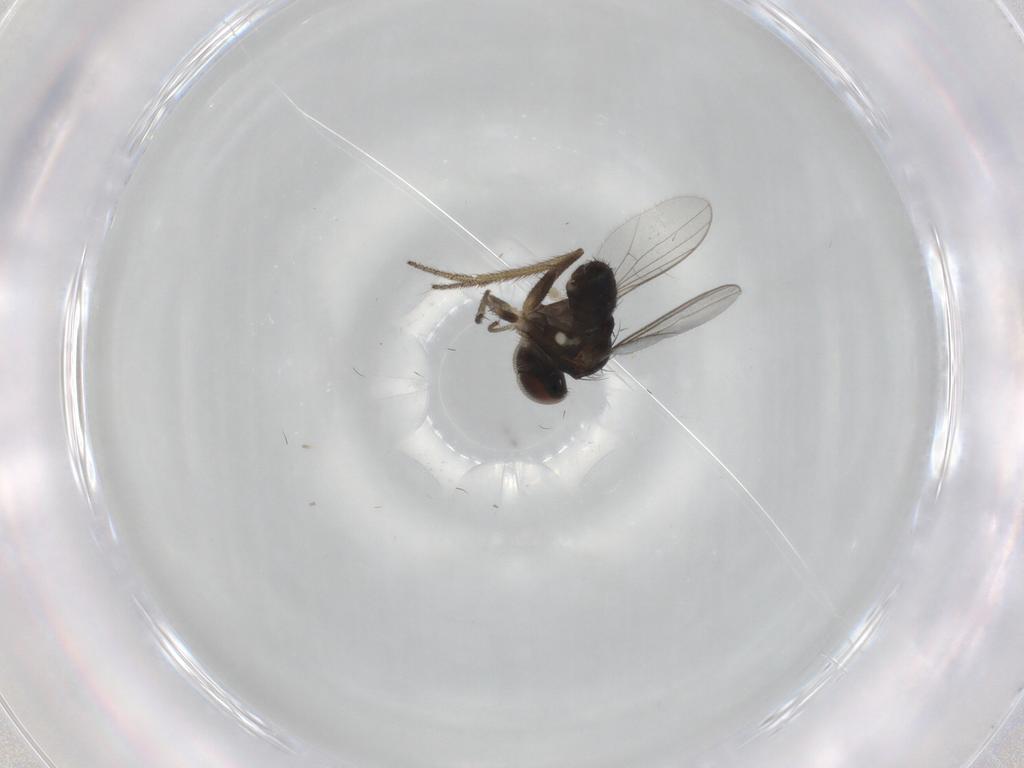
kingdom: Animalia
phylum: Arthropoda
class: Insecta
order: Diptera
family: Dolichopodidae
